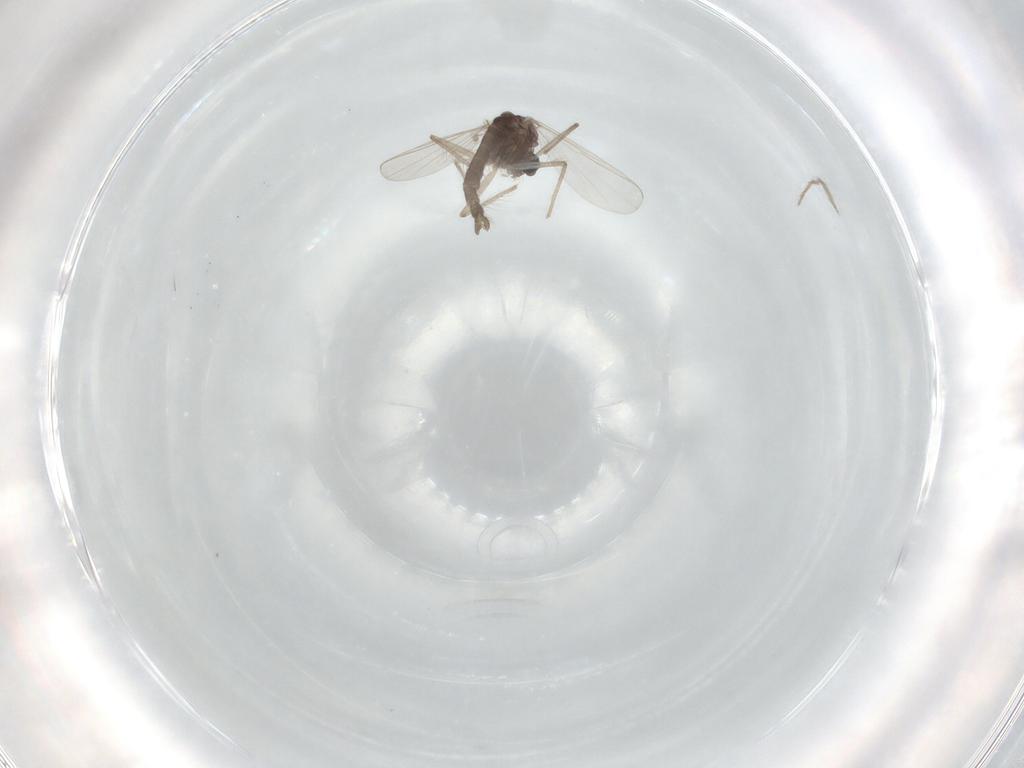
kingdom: Animalia
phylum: Arthropoda
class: Insecta
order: Diptera
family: Chironomidae
